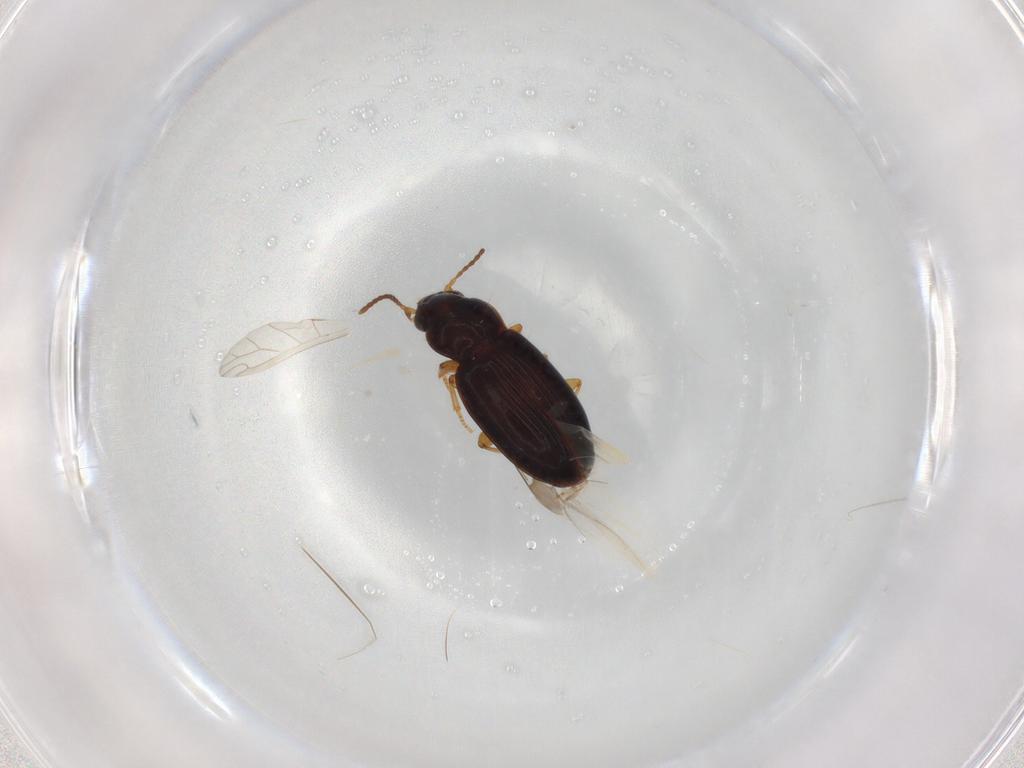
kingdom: Animalia
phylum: Arthropoda
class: Insecta
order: Coleoptera
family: Carabidae
